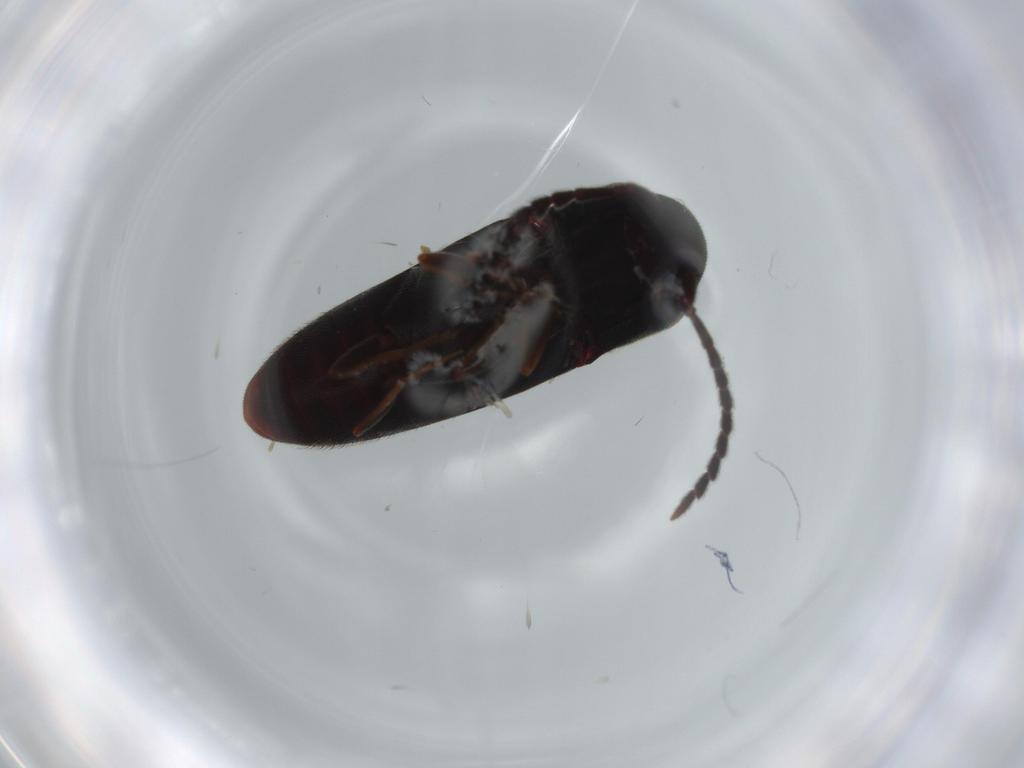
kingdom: Animalia
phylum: Arthropoda
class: Insecta
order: Coleoptera
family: Eucnemidae
